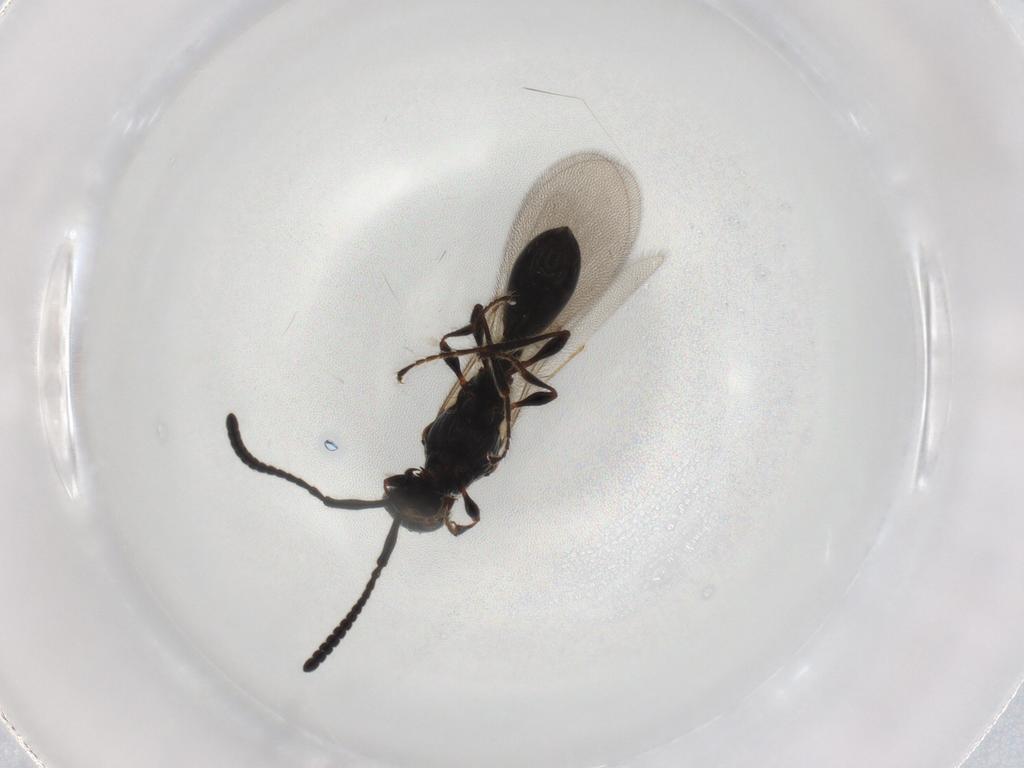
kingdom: Animalia
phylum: Arthropoda
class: Insecta
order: Hymenoptera
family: Diapriidae
